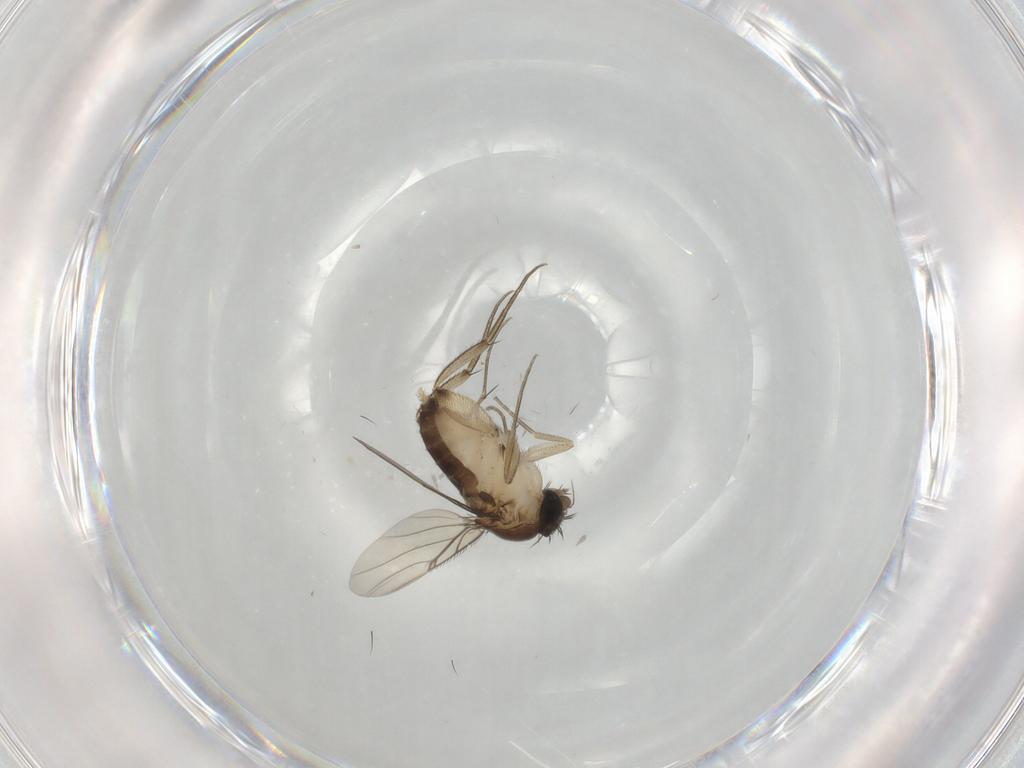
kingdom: Animalia
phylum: Arthropoda
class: Insecta
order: Diptera
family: Phoridae
